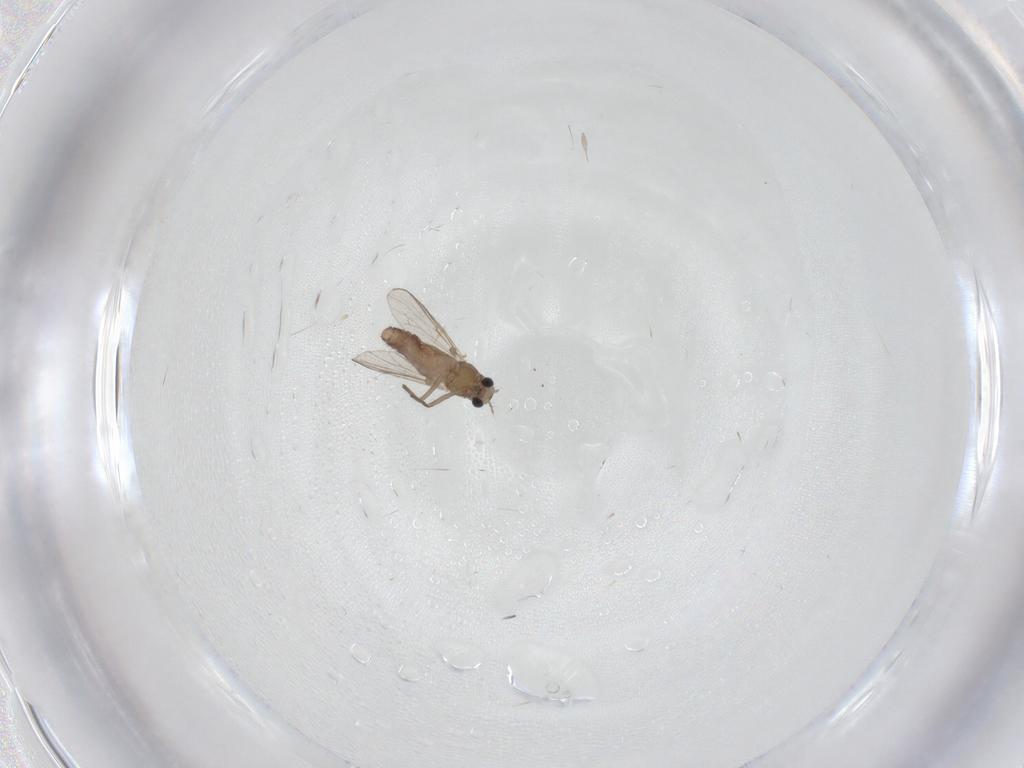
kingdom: Animalia
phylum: Arthropoda
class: Insecta
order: Diptera
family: Chironomidae
